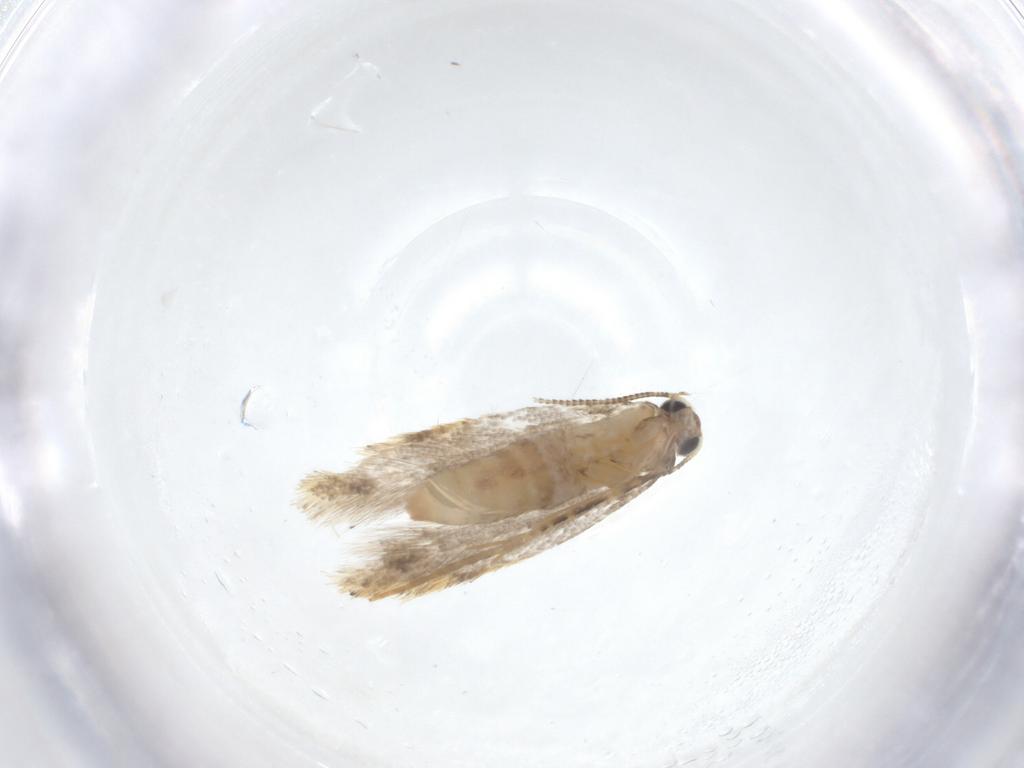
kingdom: Animalia
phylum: Arthropoda
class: Insecta
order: Lepidoptera
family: Tineidae
